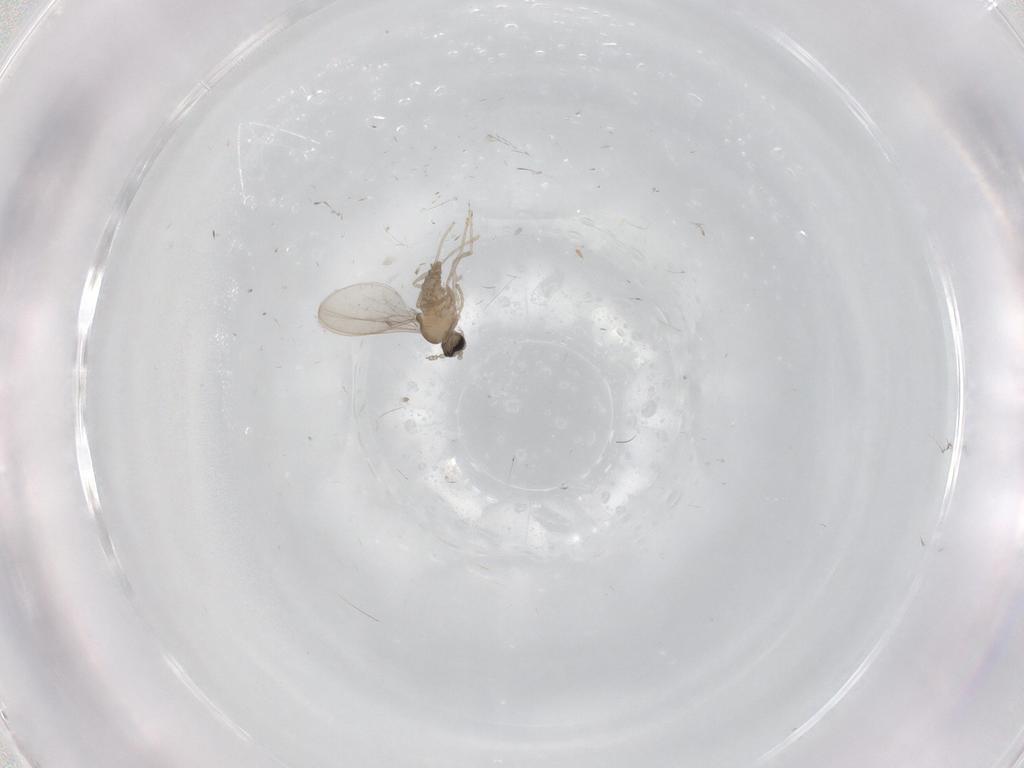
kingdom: Animalia
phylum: Arthropoda
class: Insecta
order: Diptera
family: Cecidomyiidae
